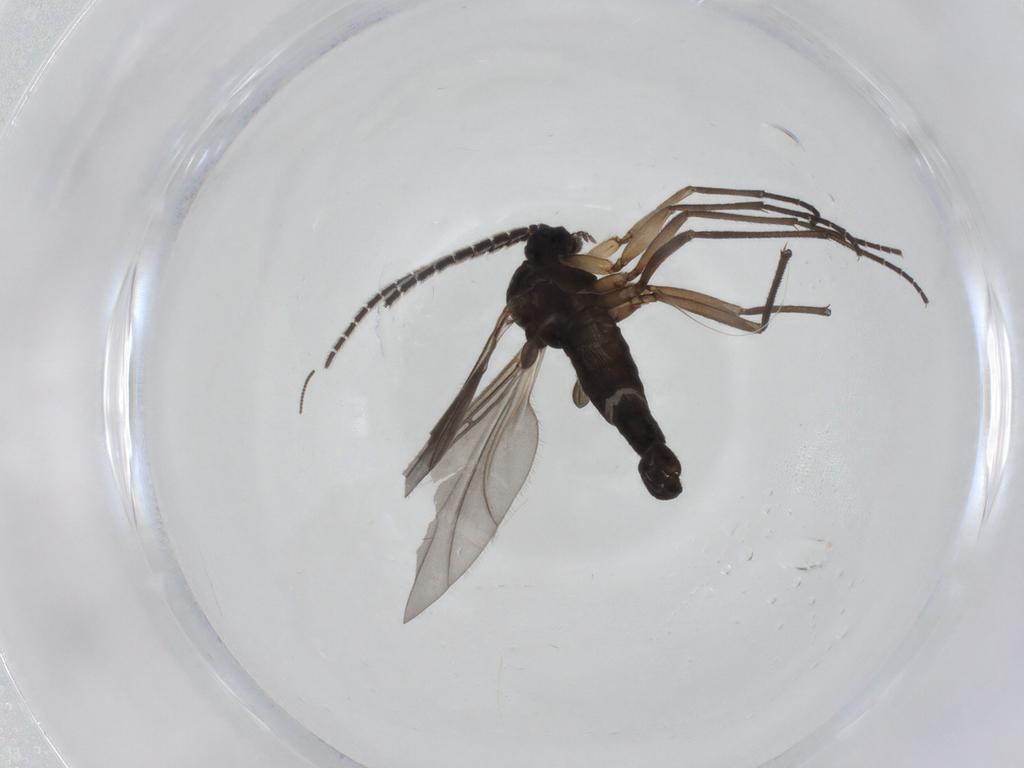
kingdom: Animalia
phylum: Arthropoda
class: Insecta
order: Diptera
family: Sciaridae
